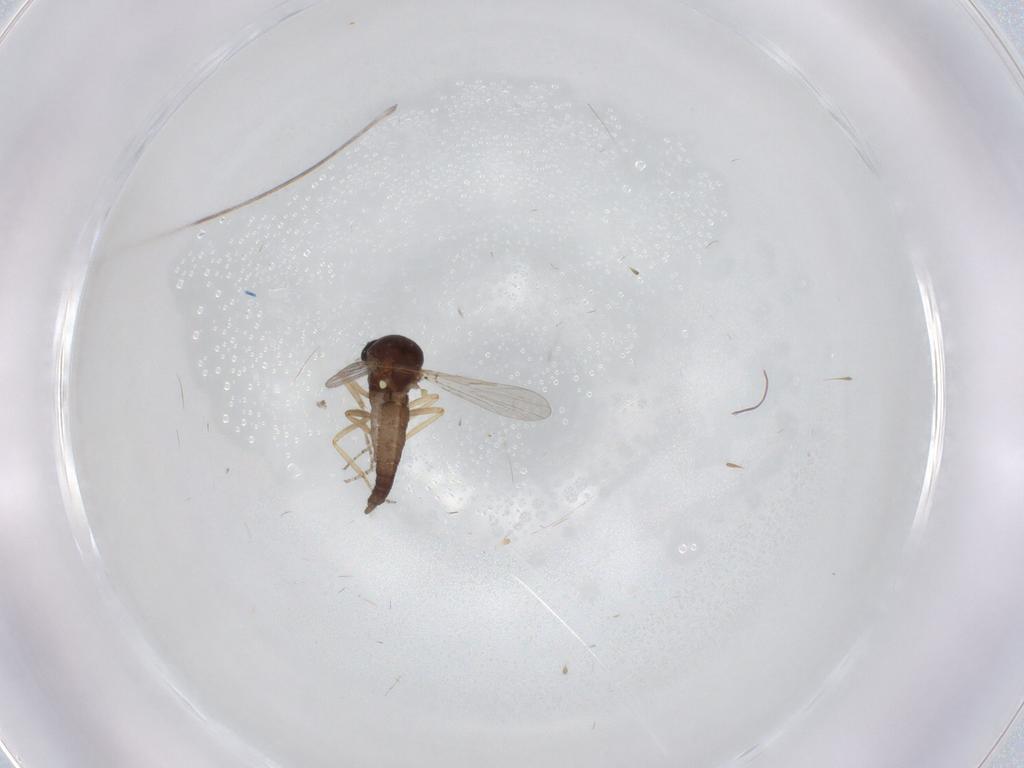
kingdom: Animalia
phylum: Arthropoda
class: Insecta
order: Diptera
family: Ceratopogonidae
